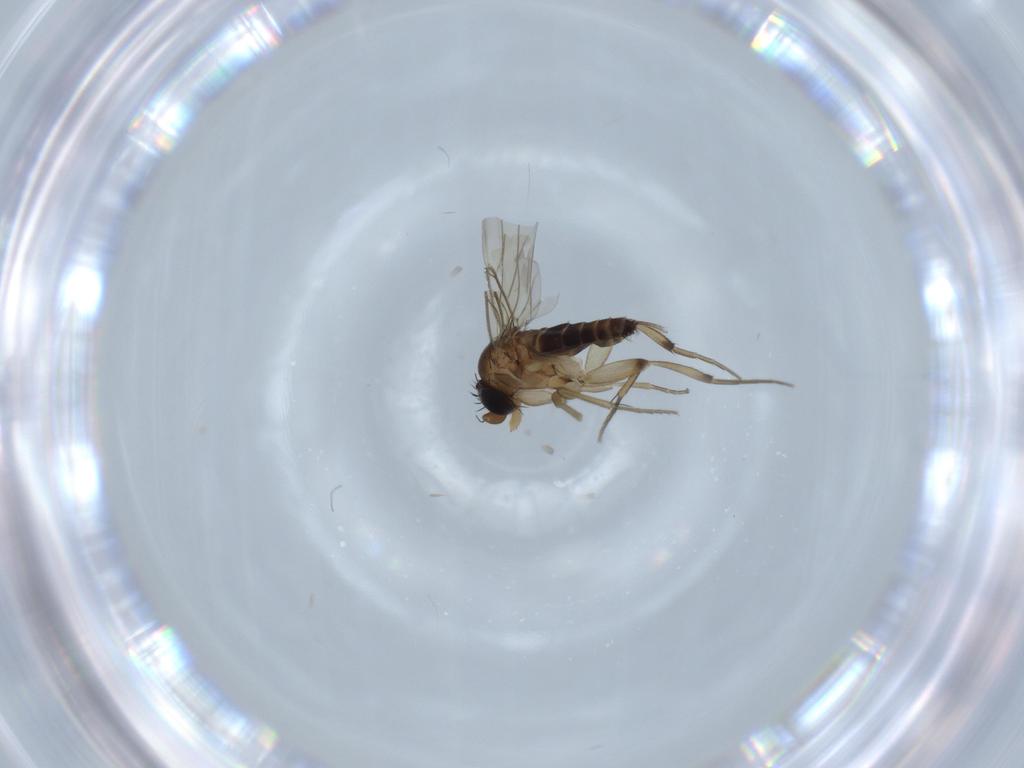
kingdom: Animalia
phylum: Arthropoda
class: Insecta
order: Diptera
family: Phoridae
